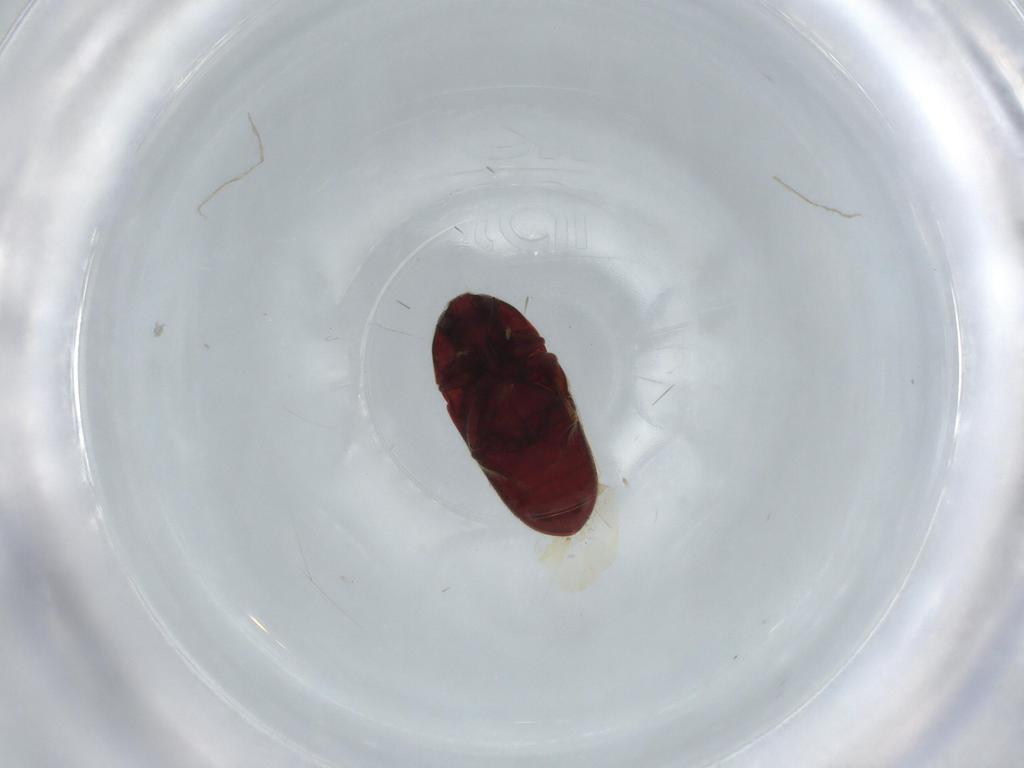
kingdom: Animalia
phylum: Arthropoda
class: Insecta
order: Coleoptera
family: Throscidae
